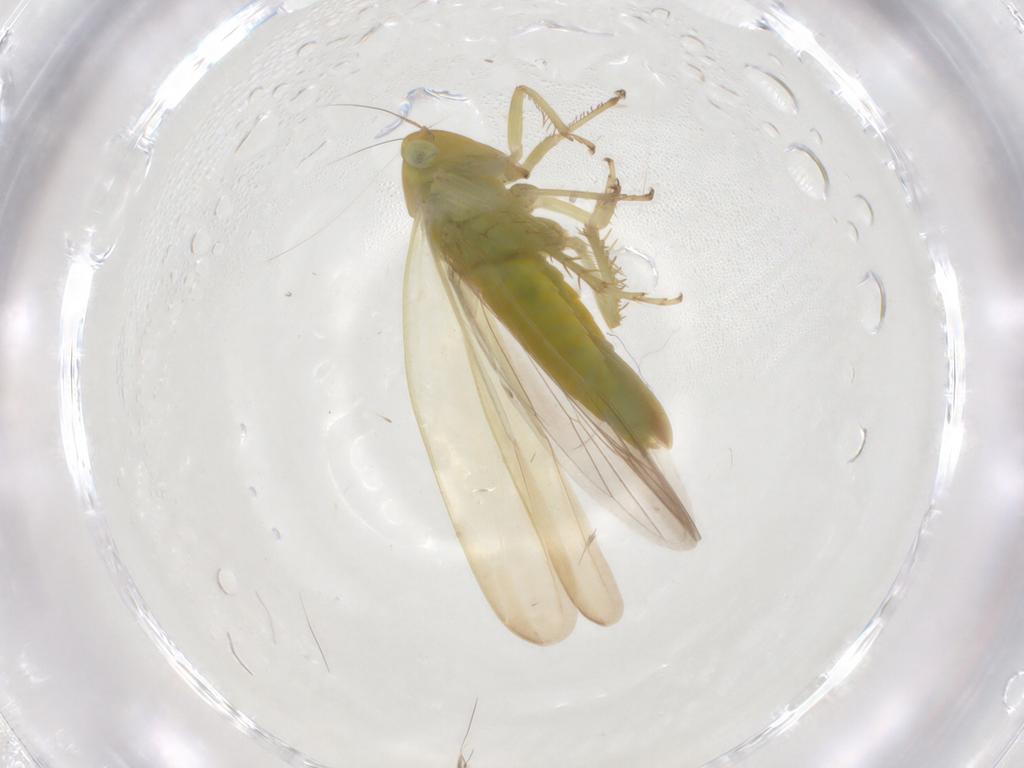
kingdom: Animalia
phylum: Arthropoda
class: Insecta
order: Hemiptera
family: Cicadellidae
